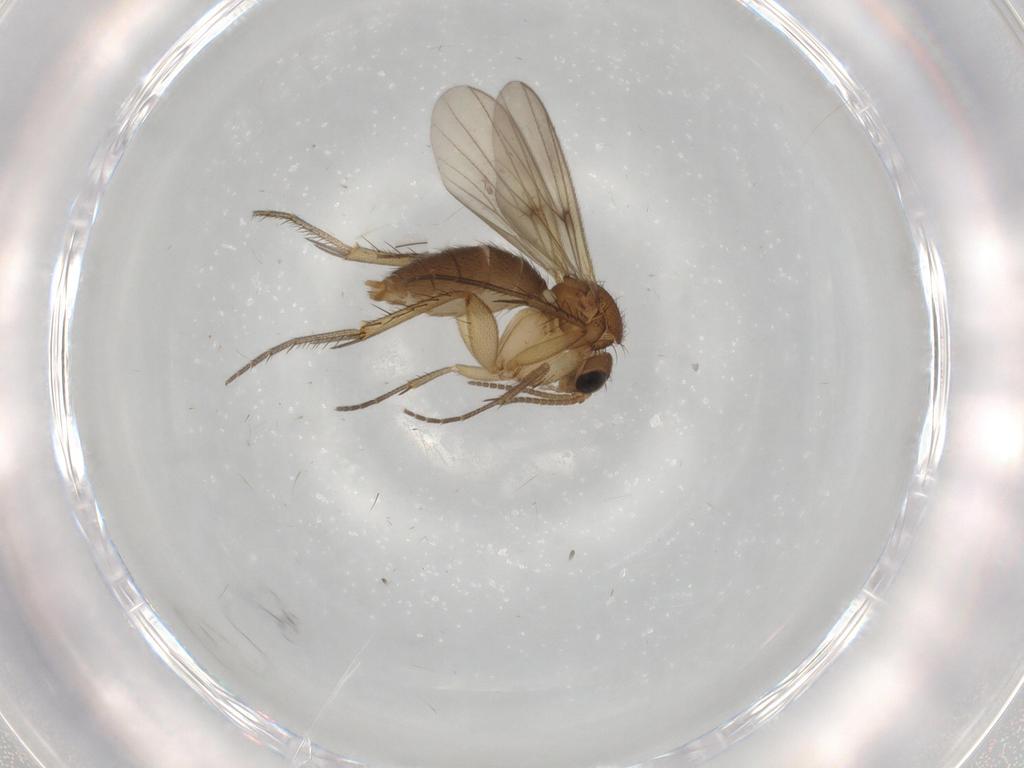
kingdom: Animalia
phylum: Arthropoda
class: Insecta
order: Diptera
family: Mycetophilidae
